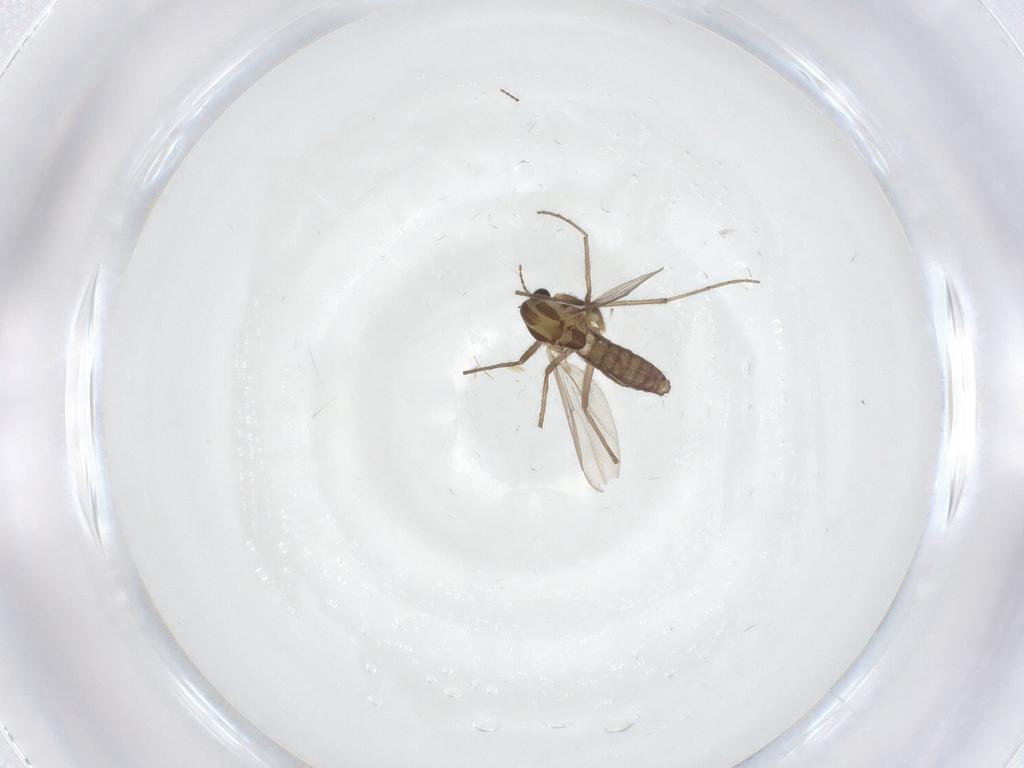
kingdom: Animalia
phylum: Arthropoda
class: Insecta
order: Diptera
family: Chironomidae
